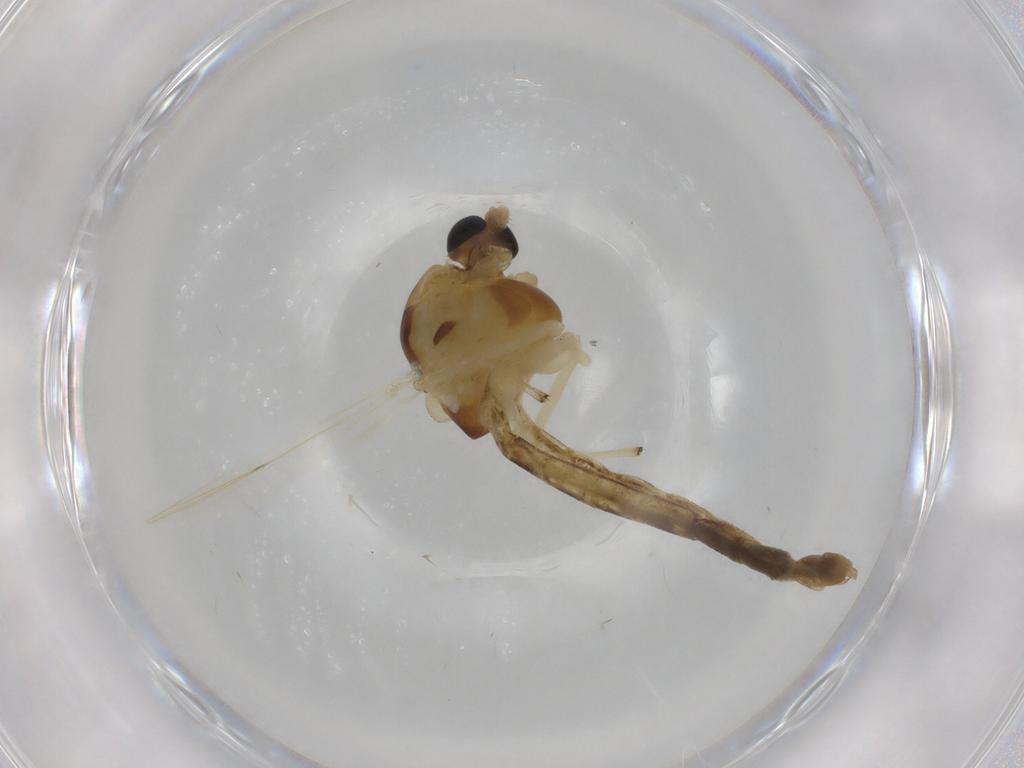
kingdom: Animalia
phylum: Arthropoda
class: Insecta
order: Diptera
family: Chironomidae
